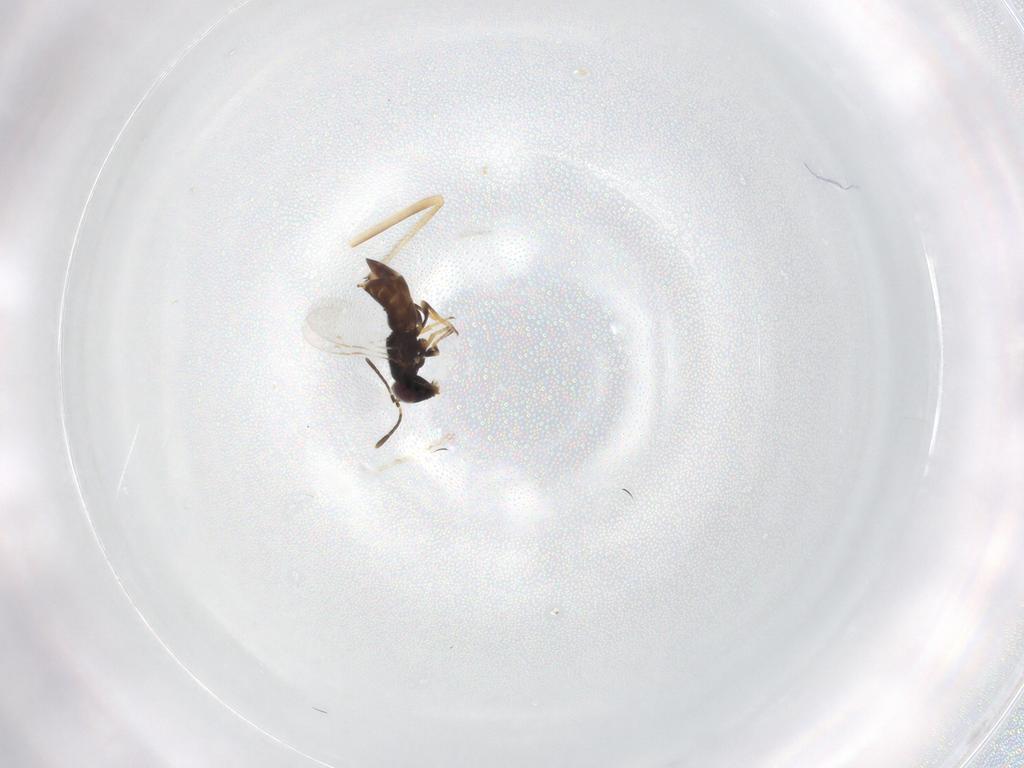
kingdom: Animalia
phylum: Arthropoda
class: Insecta
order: Hymenoptera
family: Encyrtidae
